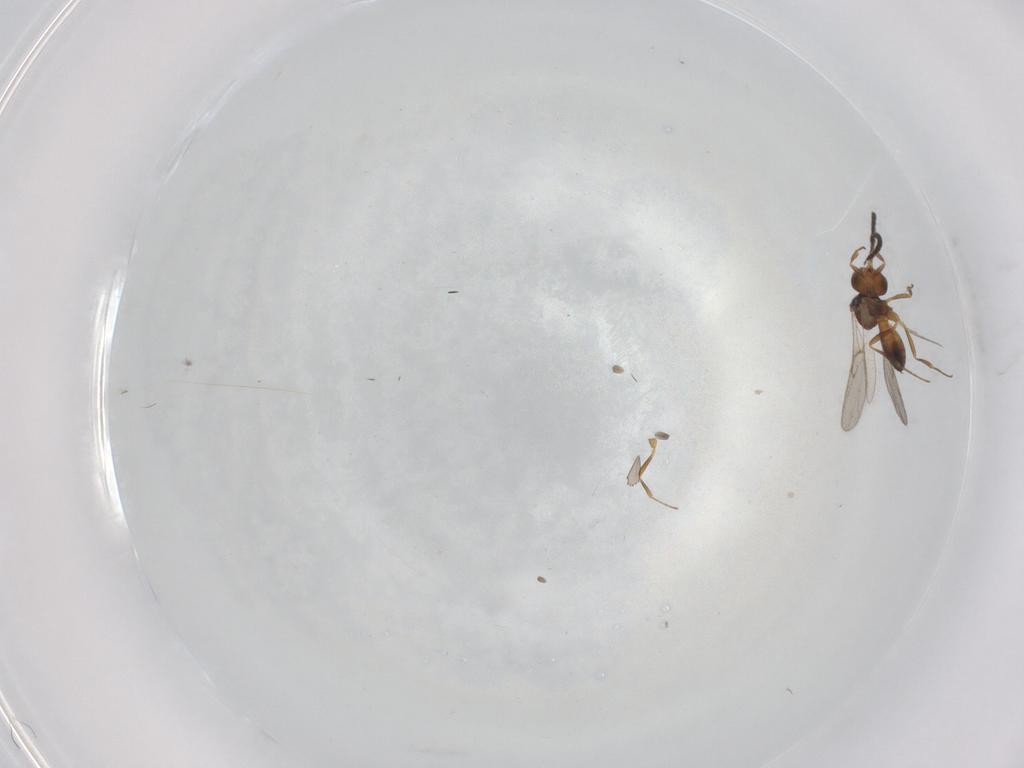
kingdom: Animalia
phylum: Arthropoda
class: Insecta
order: Hymenoptera
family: Scelionidae
